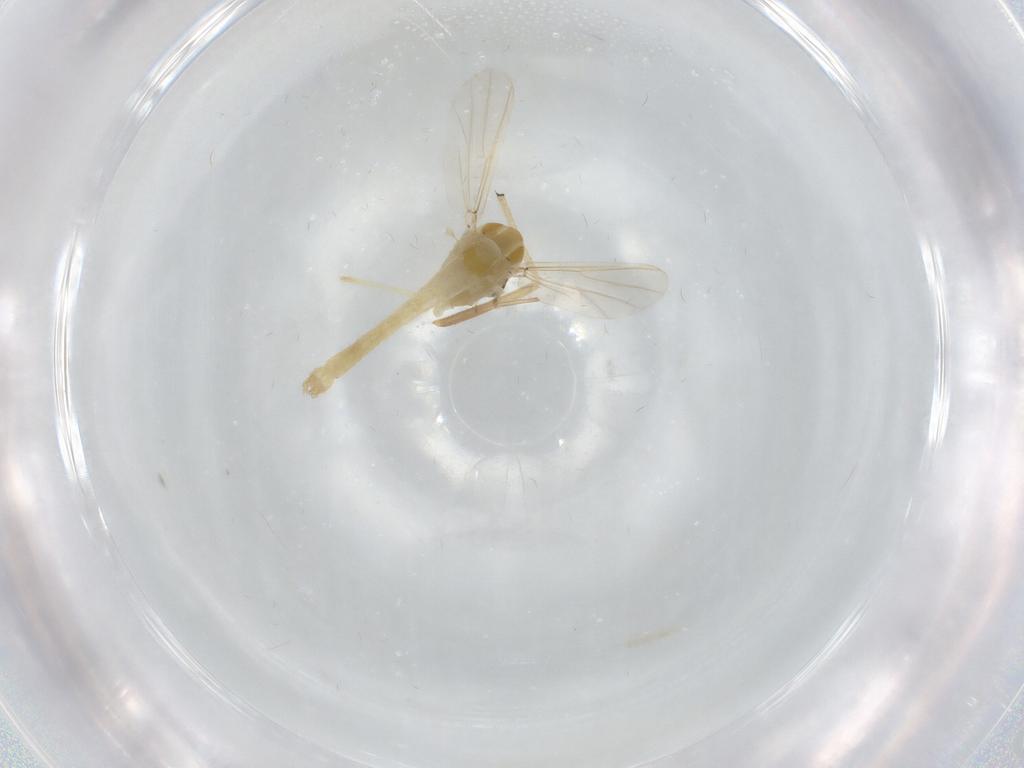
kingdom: Animalia
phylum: Arthropoda
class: Insecta
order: Diptera
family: Chironomidae
